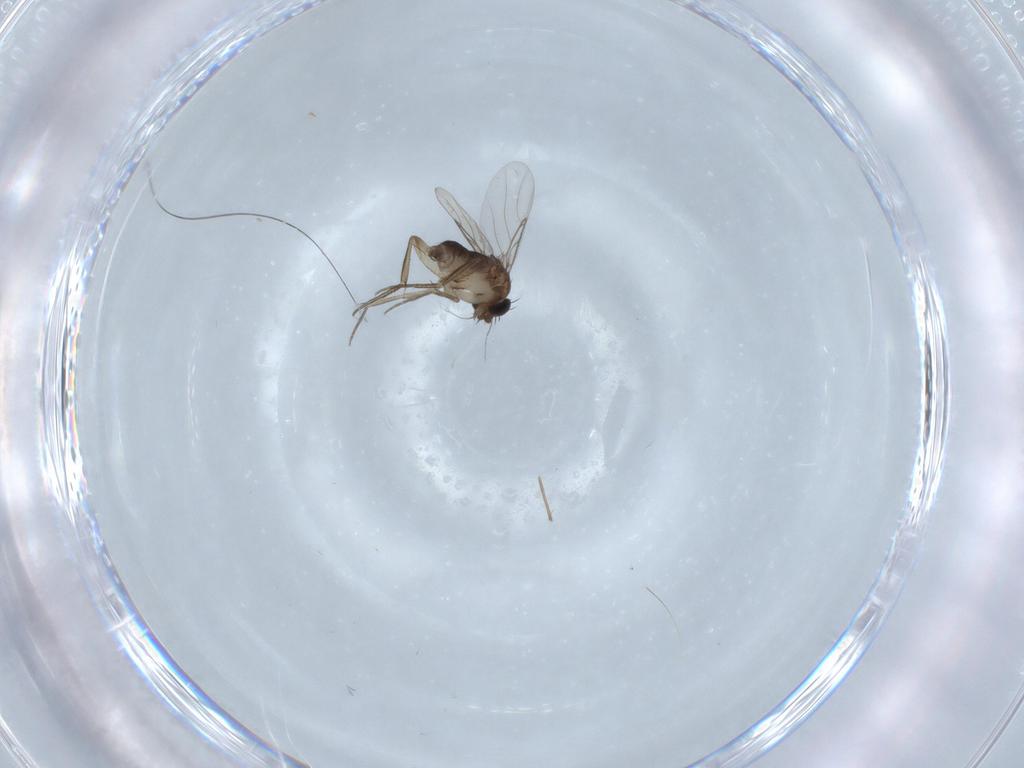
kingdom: Animalia
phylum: Arthropoda
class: Insecta
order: Diptera
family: Phoridae
